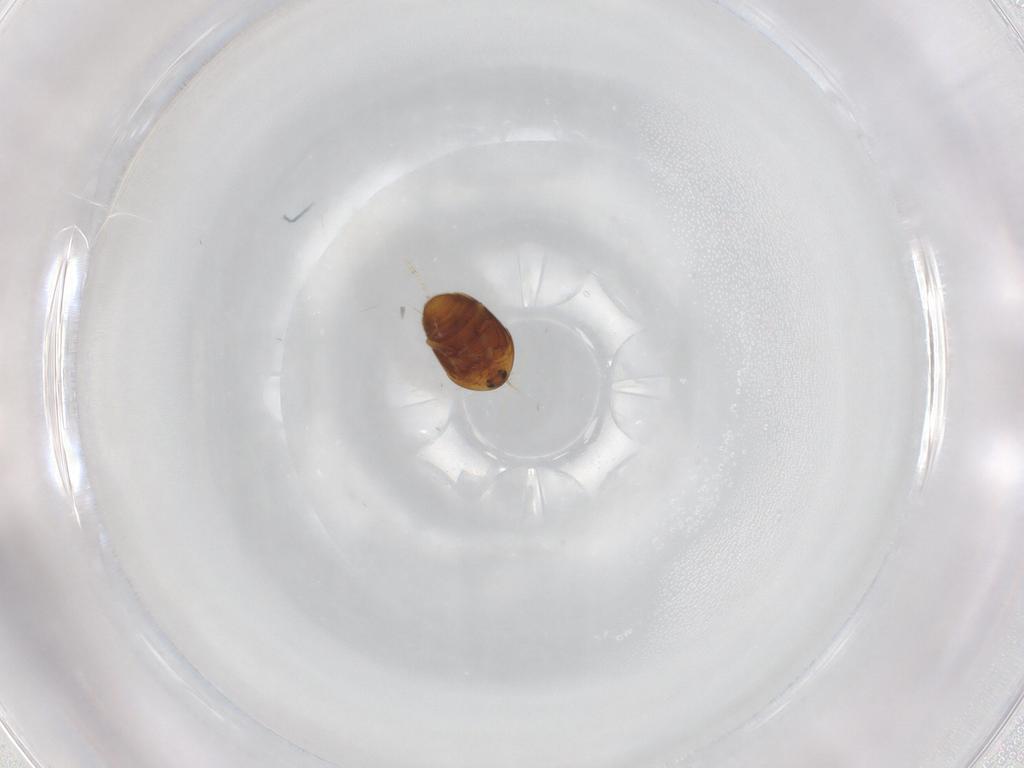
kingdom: Animalia
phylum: Arthropoda
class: Insecta
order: Coleoptera
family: Corylophidae
